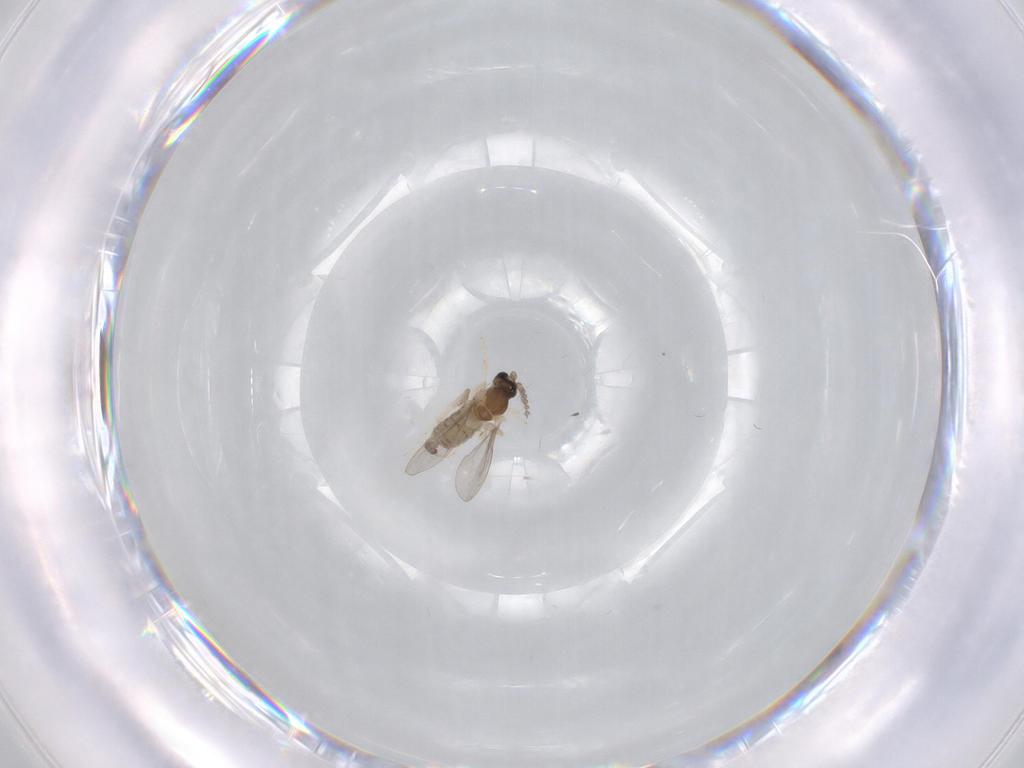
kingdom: Animalia
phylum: Arthropoda
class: Insecta
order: Diptera
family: Cecidomyiidae
